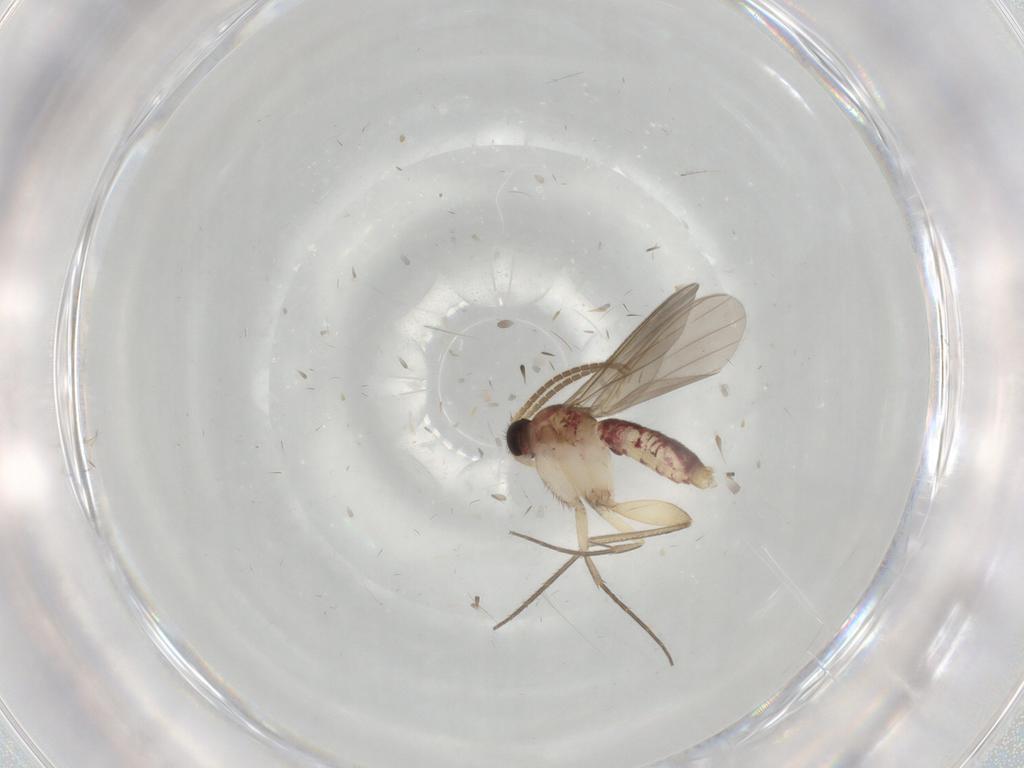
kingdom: Animalia
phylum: Arthropoda
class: Insecta
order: Diptera
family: Mycetophilidae
